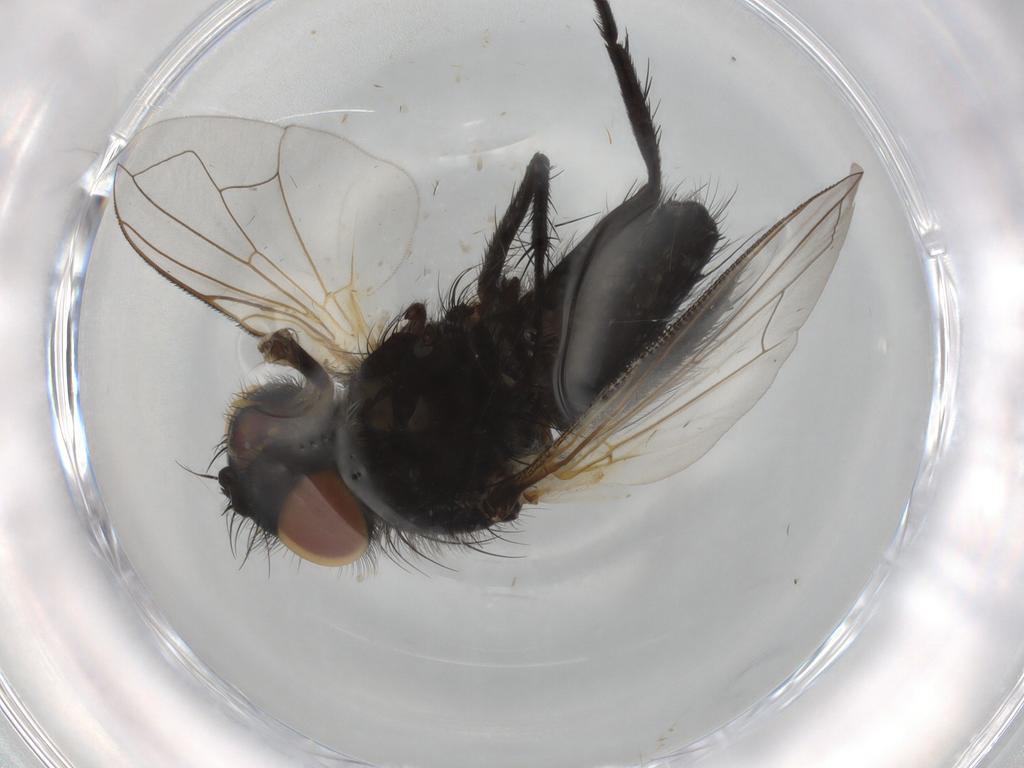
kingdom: Animalia
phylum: Arthropoda
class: Insecta
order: Diptera
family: Tachinidae
